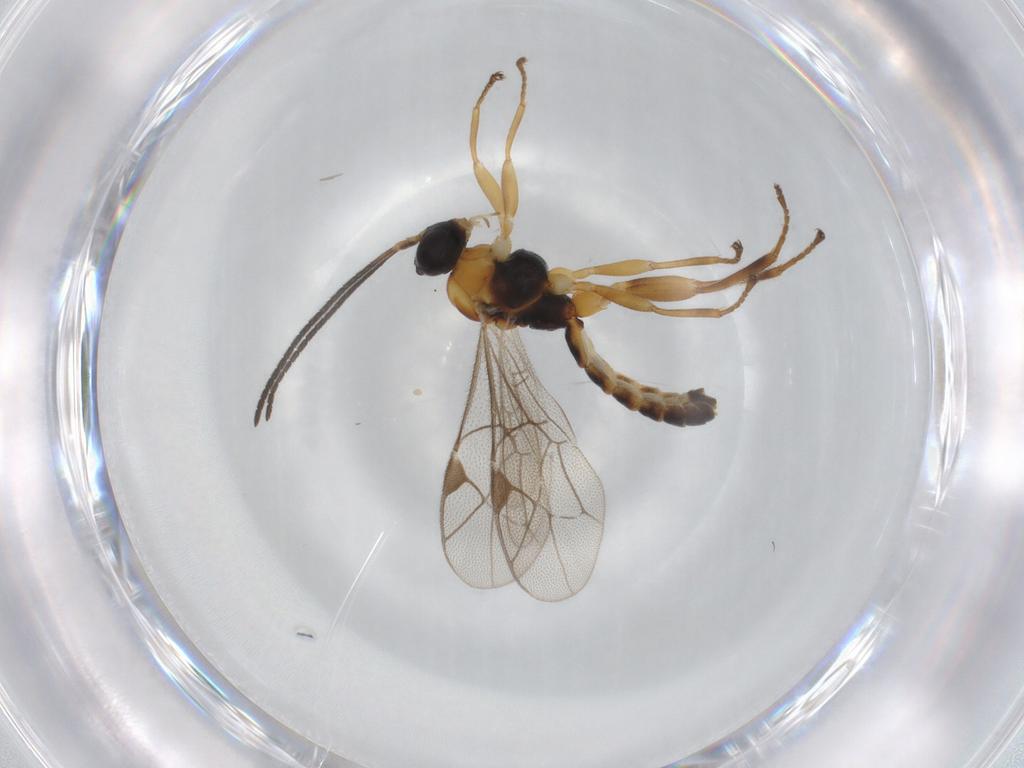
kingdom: Animalia
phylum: Arthropoda
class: Insecta
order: Hymenoptera
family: Ichneumonidae
